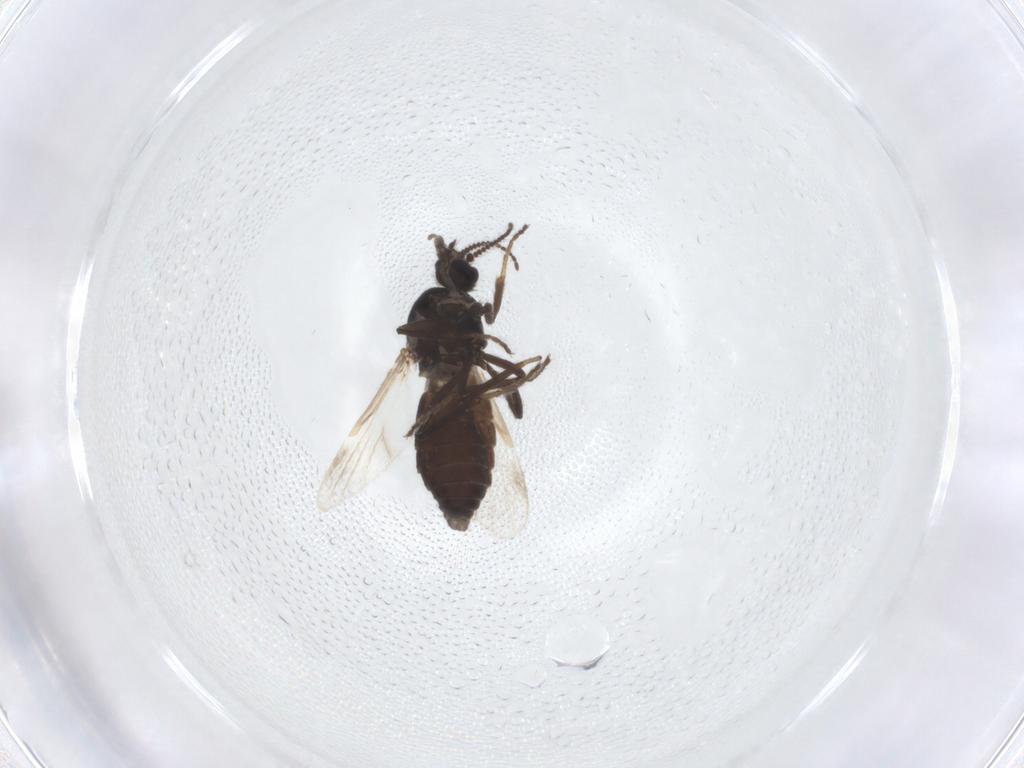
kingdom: Animalia
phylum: Arthropoda
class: Insecta
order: Diptera
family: Ceratopogonidae
